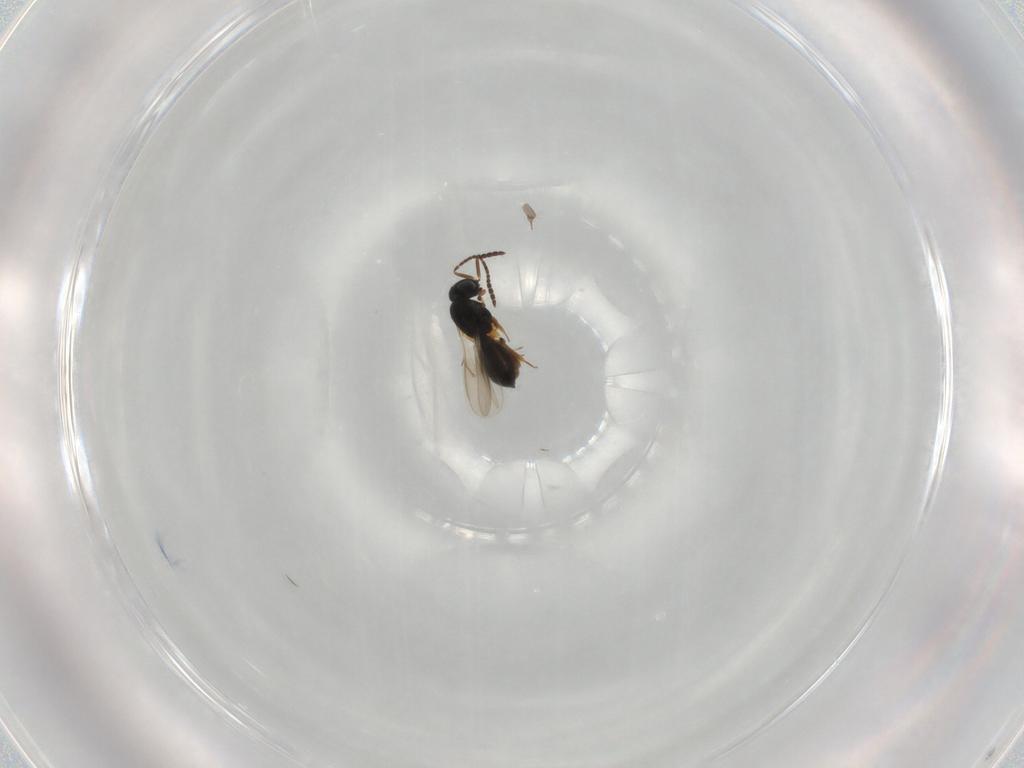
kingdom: Animalia
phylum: Arthropoda
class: Insecta
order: Hymenoptera
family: Scelionidae
